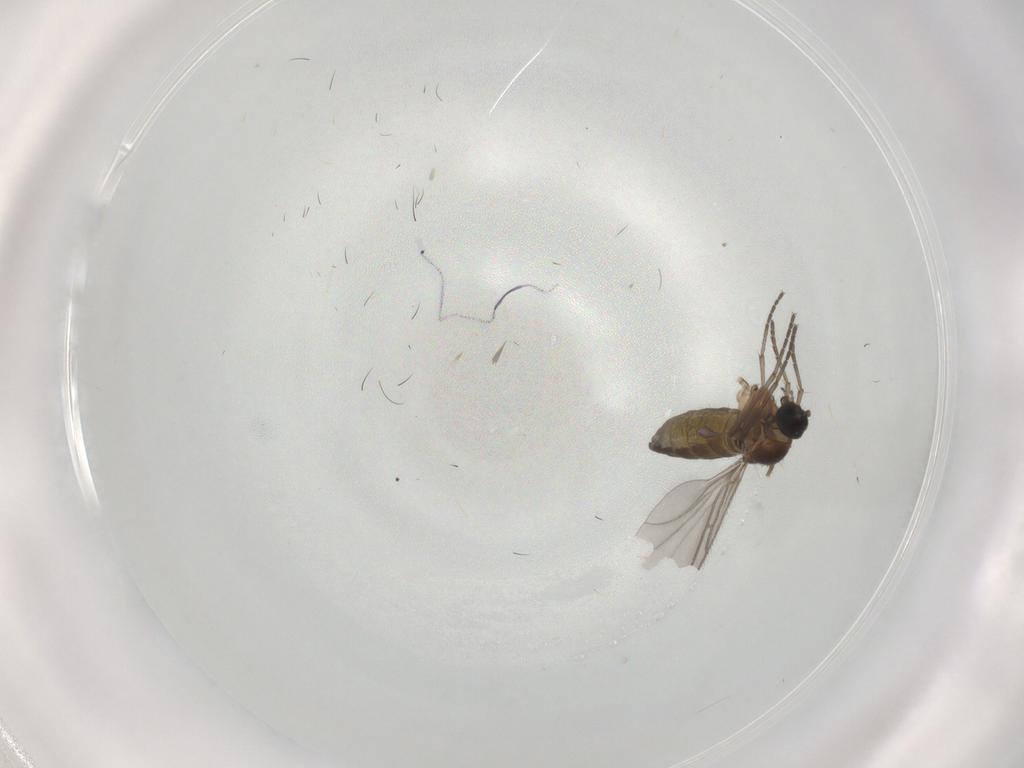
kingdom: Animalia
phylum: Arthropoda
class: Insecta
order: Diptera
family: Sciaridae
